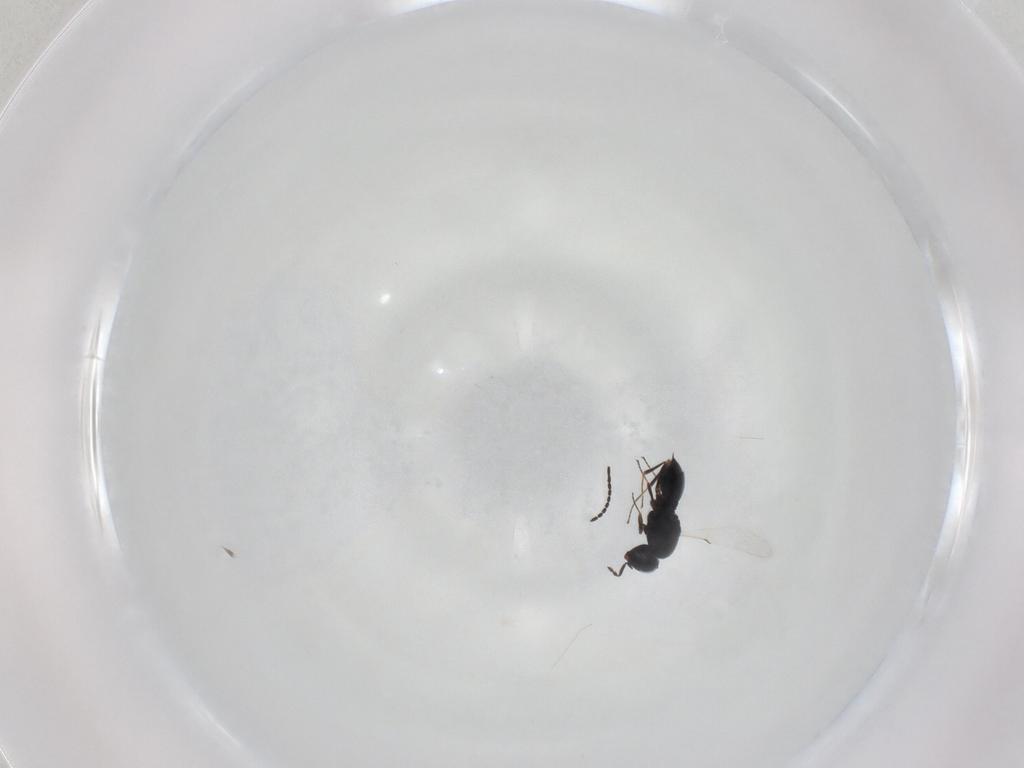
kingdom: Animalia
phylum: Arthropoda
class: Insecta
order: Hymenoptera
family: Scelionidae
